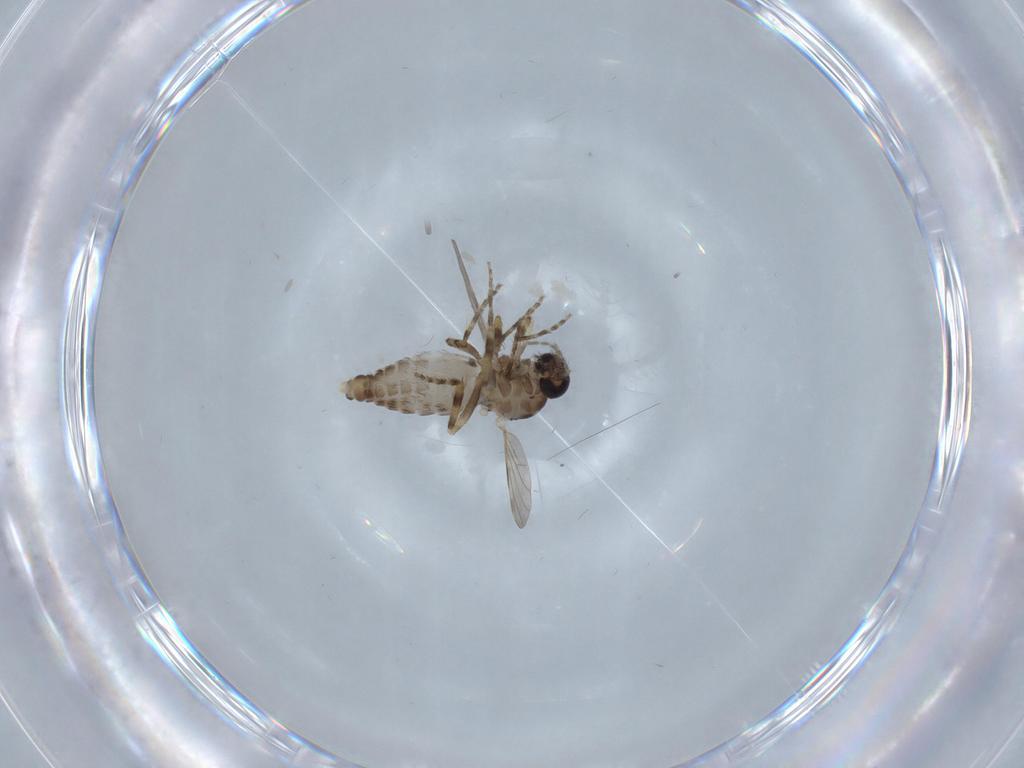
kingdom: Animalia
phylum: Arthropoda
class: Insecta
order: Diptera
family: Ceratopogonidae
